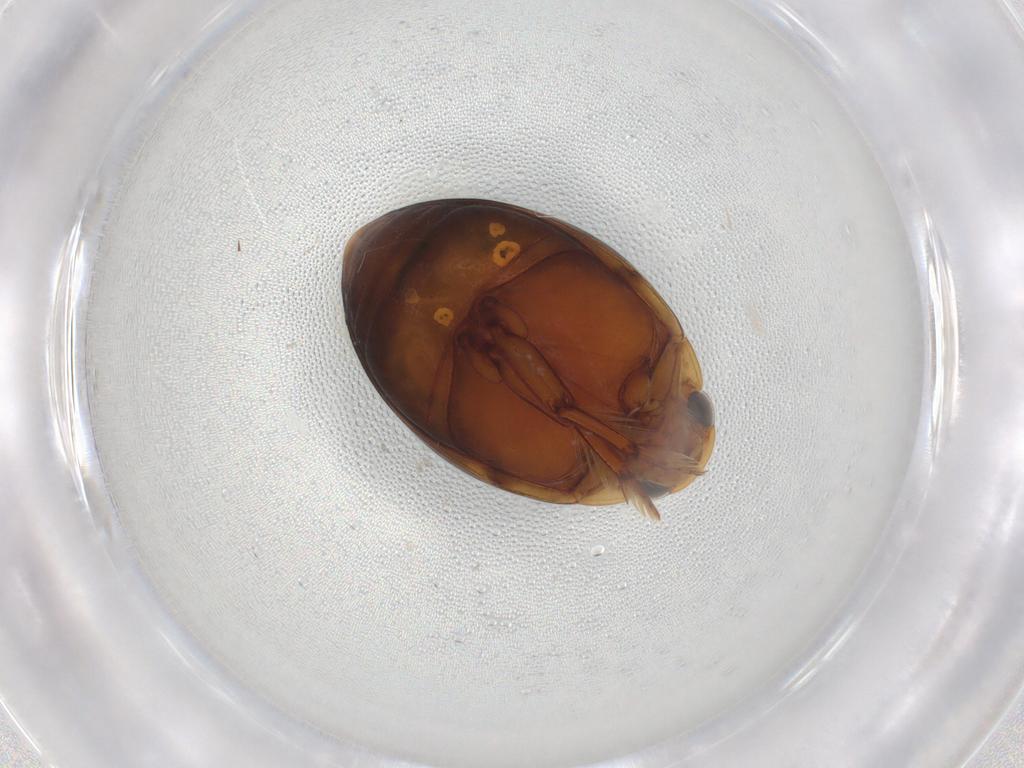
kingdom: Animalia
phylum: Arthropoda
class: Insecta
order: Coleoptera
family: Dytiscidae
